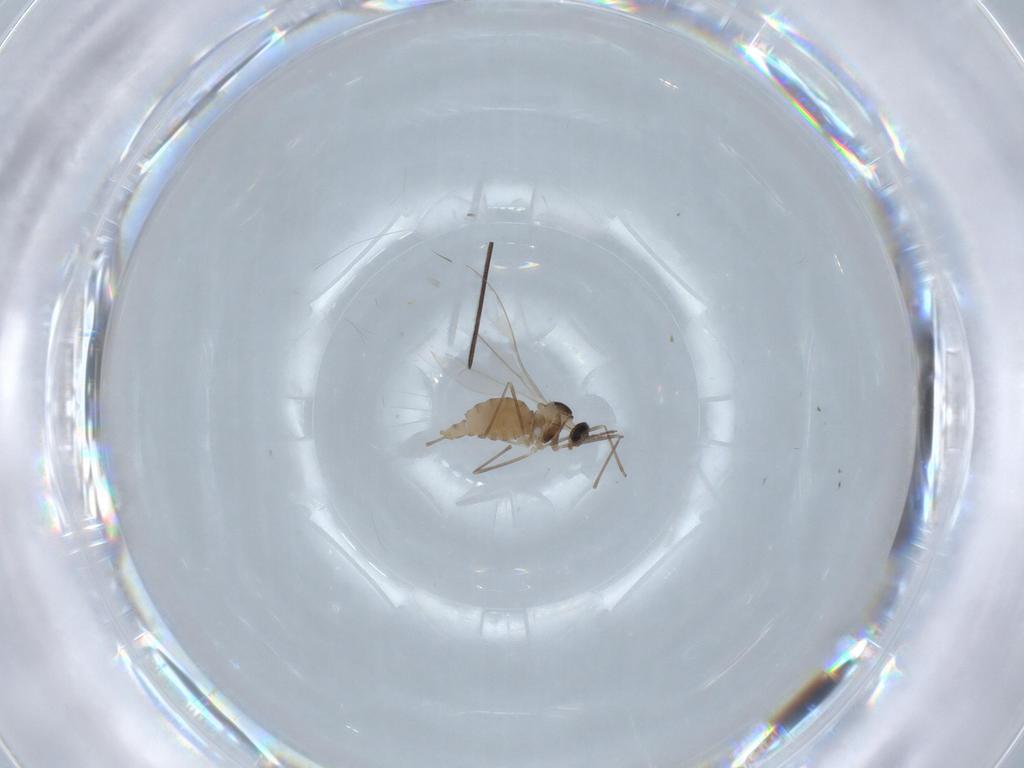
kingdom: Animalia
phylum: Arthropoda
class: Insecta
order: Diptera
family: Cecidomyiidae
